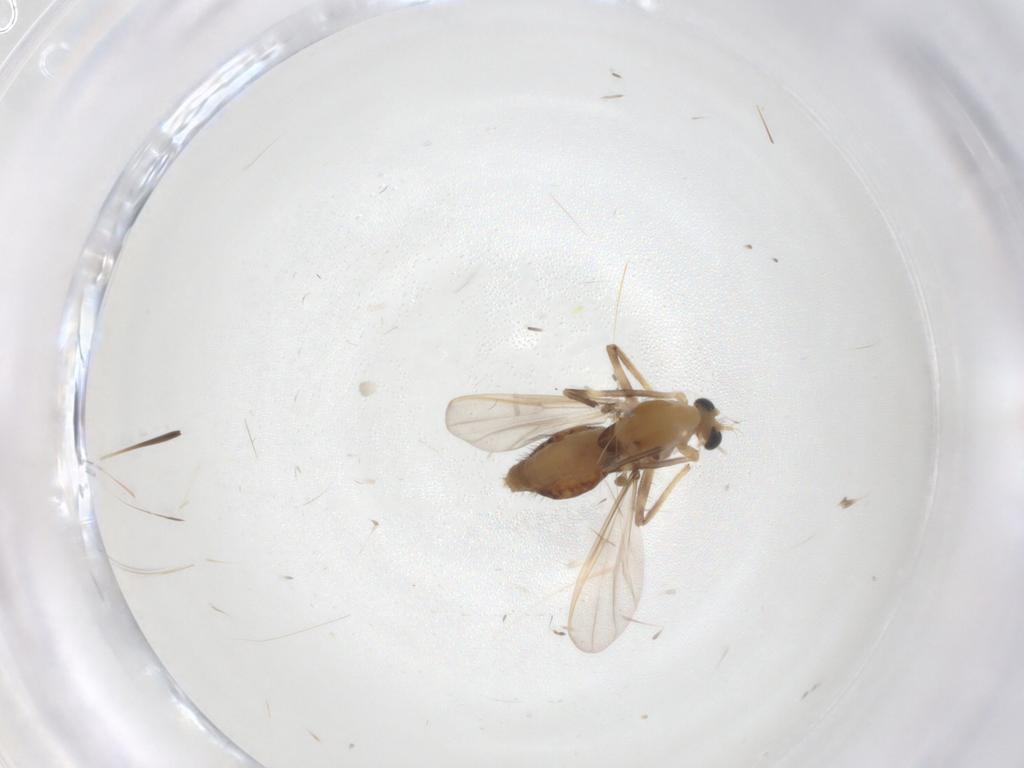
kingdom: Animalia
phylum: Arthropoda
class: Insecta
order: Diptera
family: Chironomidae
